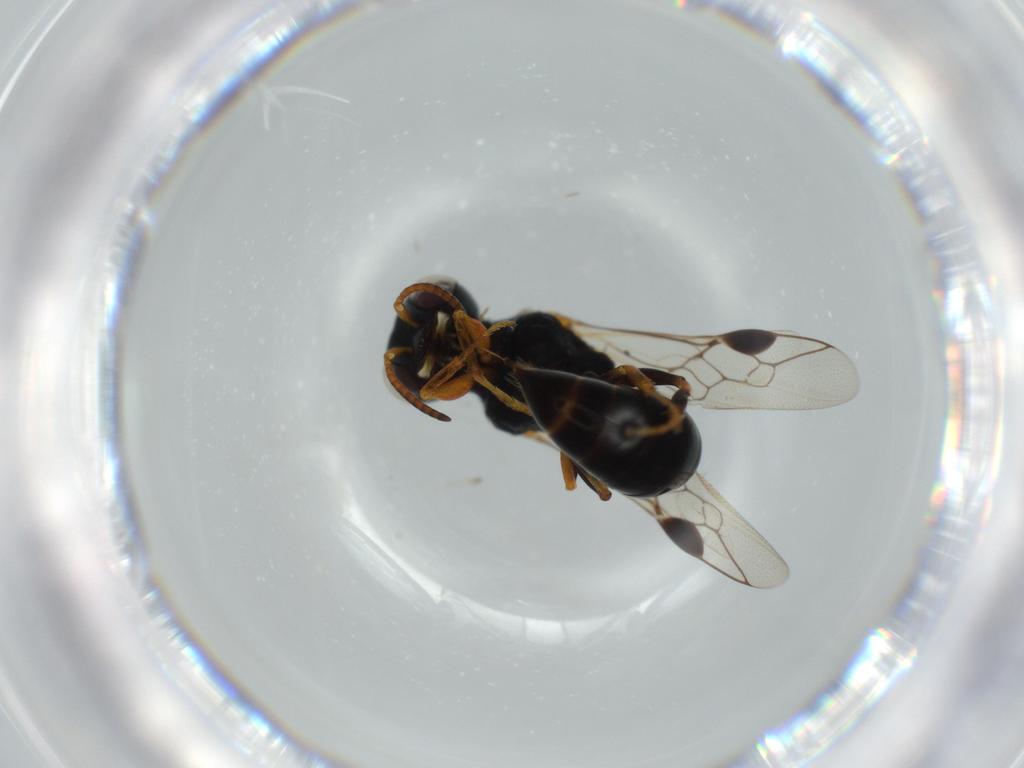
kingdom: Animalia
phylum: Arthropoda
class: Insecta
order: Hymenoptera
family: Pemphredonidae
